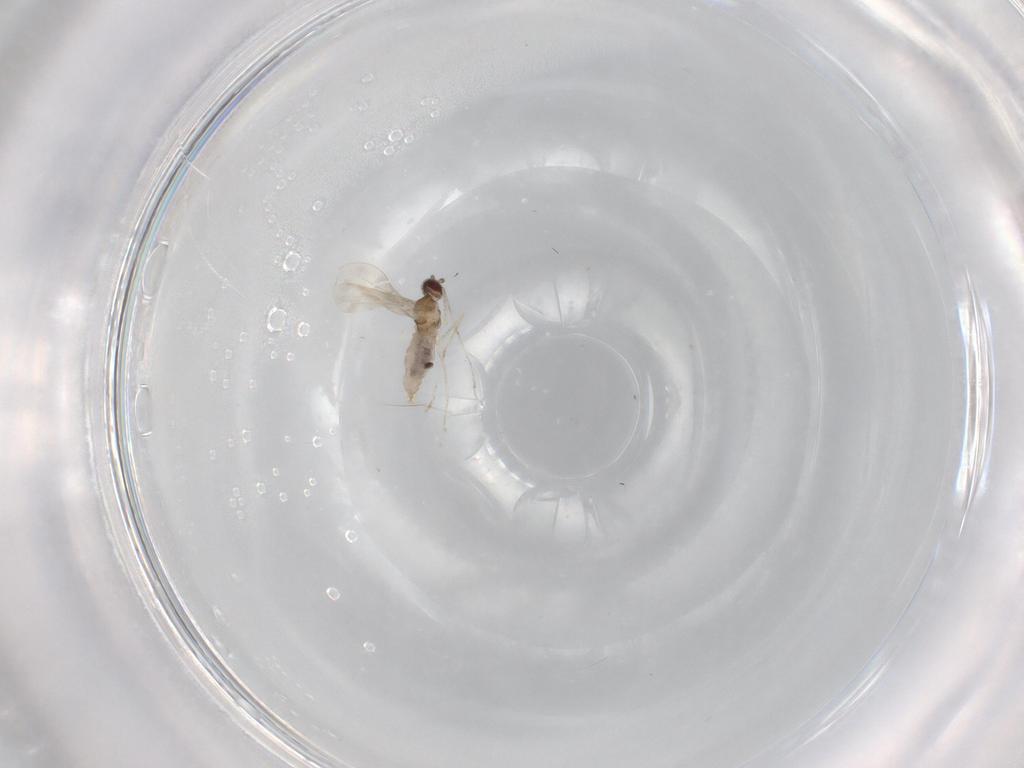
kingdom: Animalia
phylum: Arthropoda
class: Insecta
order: Diptera
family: Cecidomyiidae
